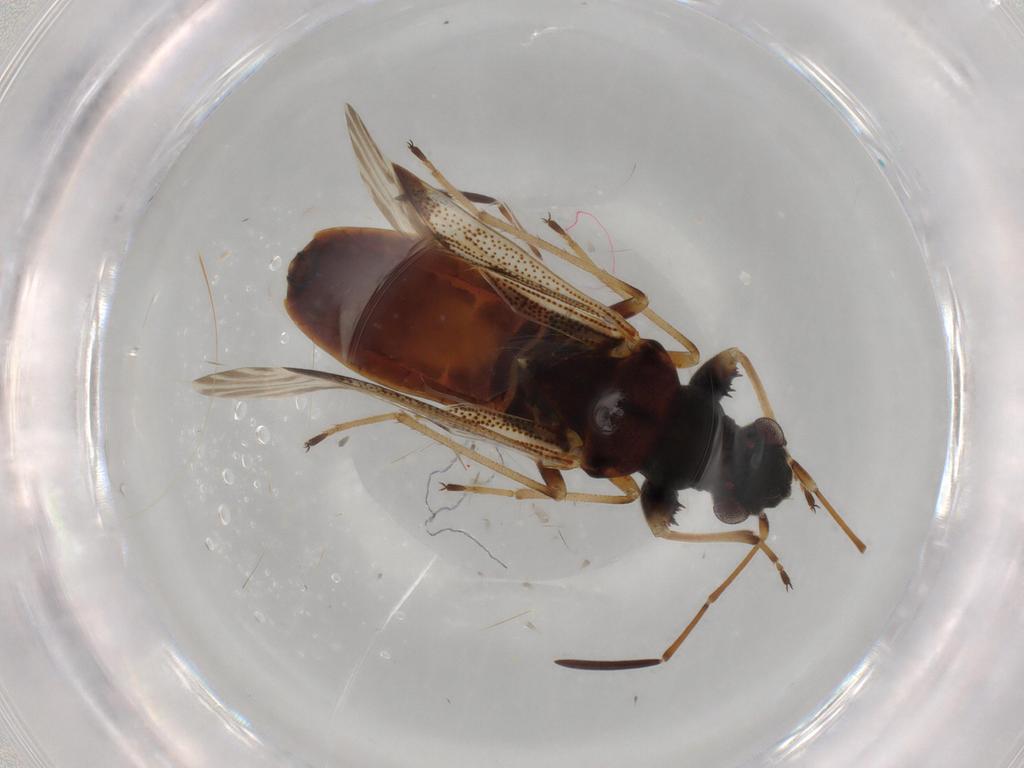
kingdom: Animalia
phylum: Arthropoda
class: Insecta
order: Hemiptera
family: Rhyparochromidae
